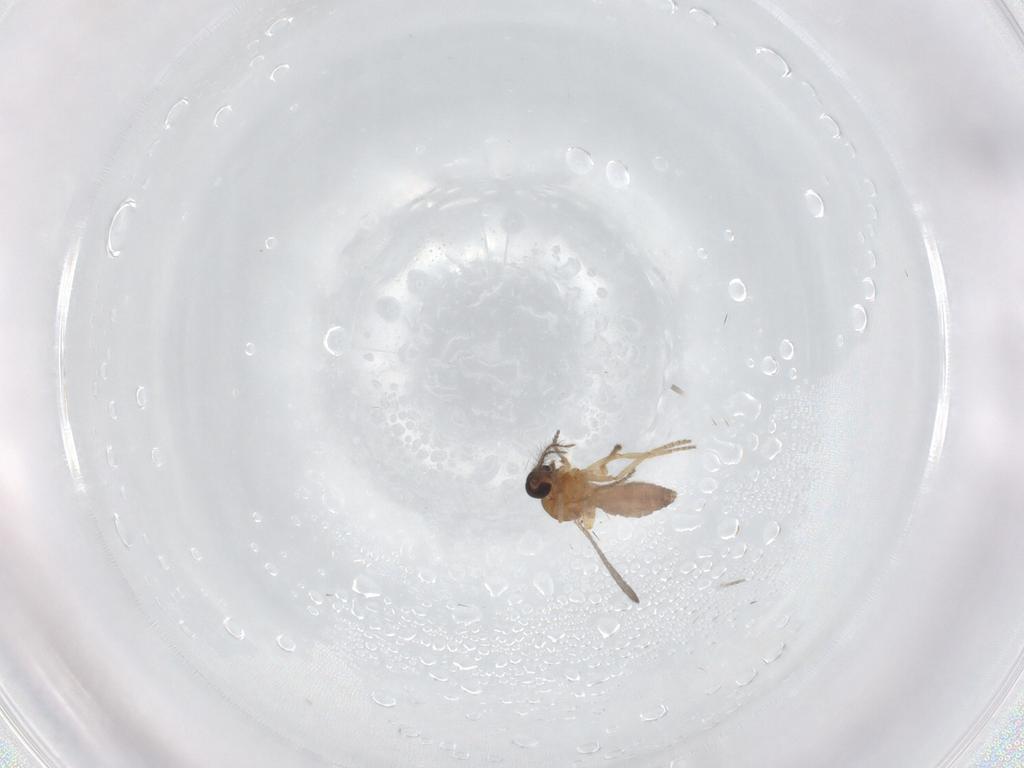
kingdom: Animalia
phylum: Arthropoda
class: Insecta
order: Diptera
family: Ceratopogonidae
